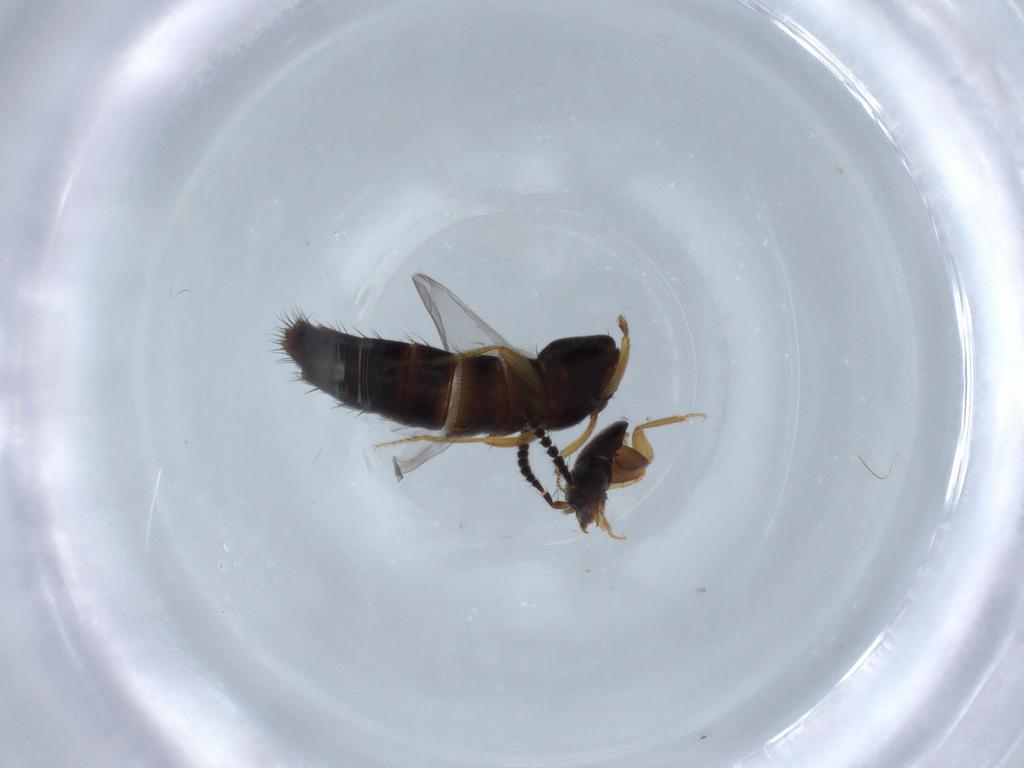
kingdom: Animalia
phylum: Arthropoda
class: Insecta
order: Coleoptera
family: Staphylinidae
